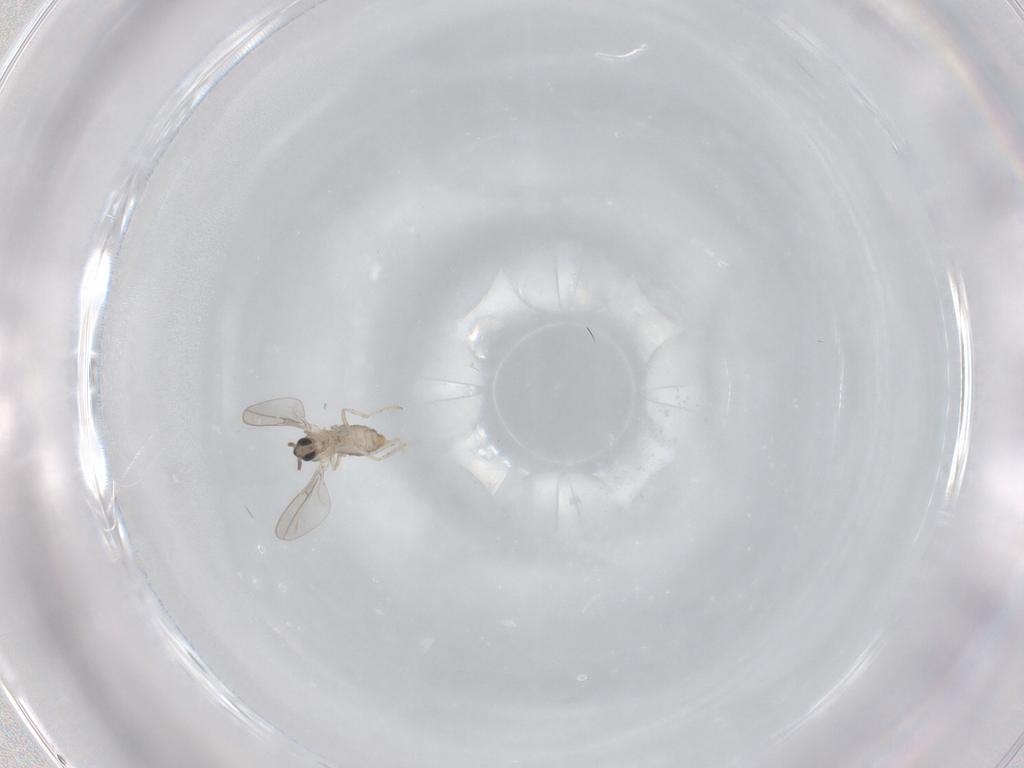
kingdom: Animalia
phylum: Arthropoda
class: Insecta
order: Diptera
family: Cecidomyiidae
